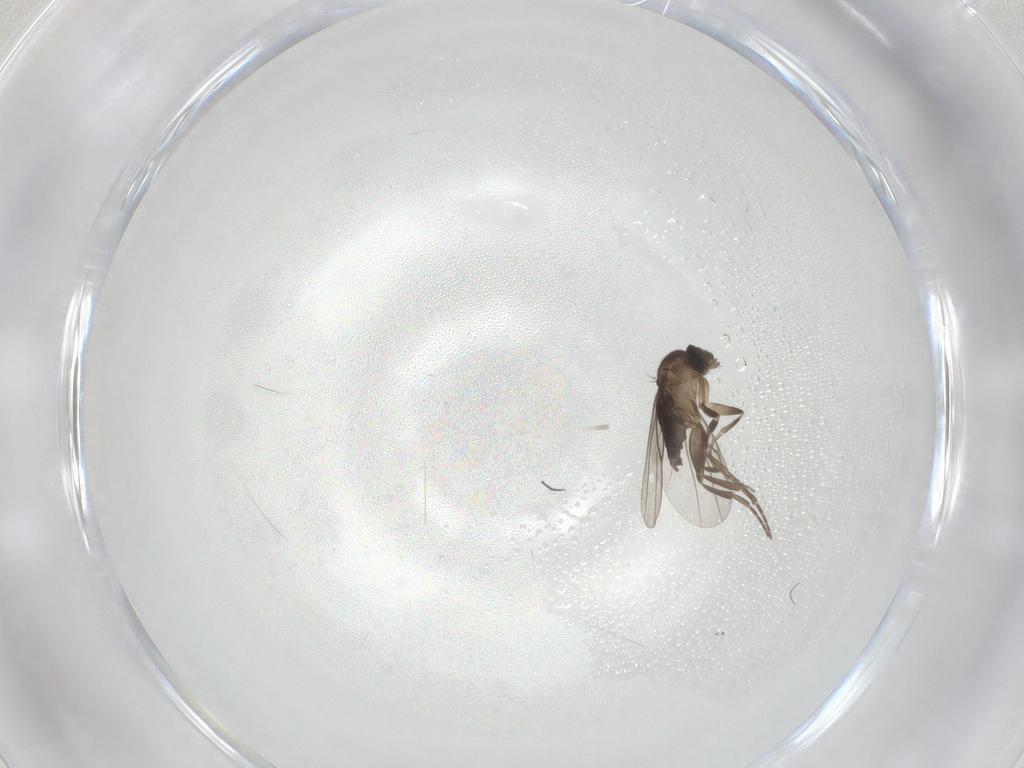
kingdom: Animalia
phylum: Arthropoda
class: Insecta
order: Diptera
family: Phoridae
